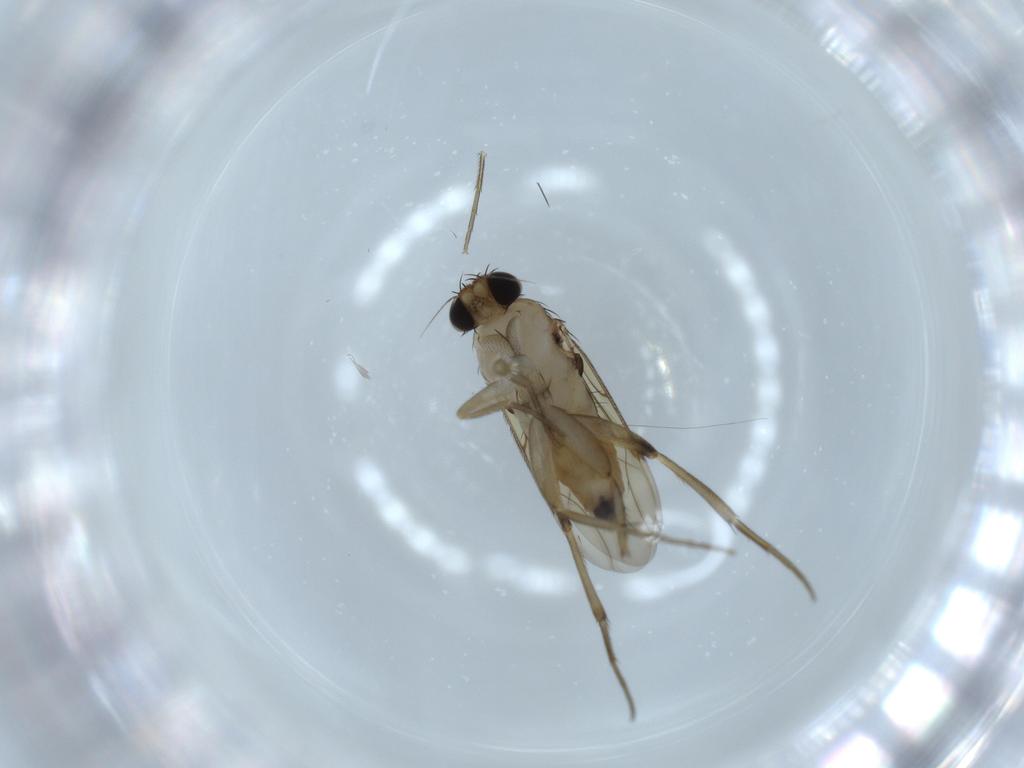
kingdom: Animalia
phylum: Arthropoda
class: Insecta
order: Diptera
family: Phoridae
